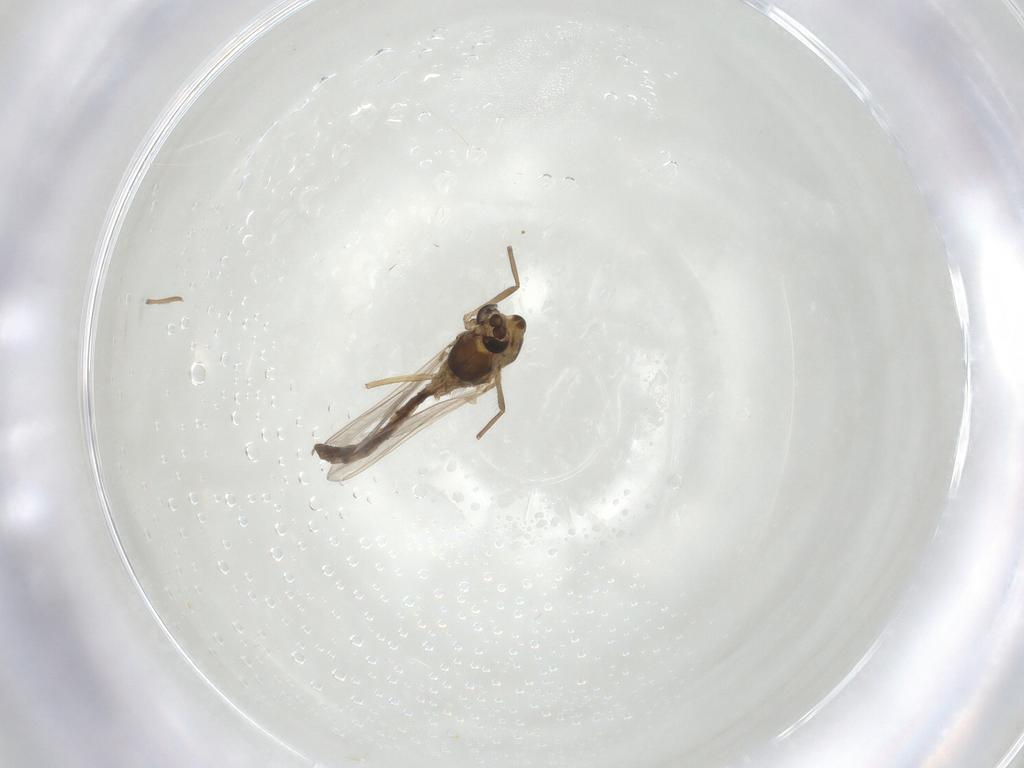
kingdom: Animalia
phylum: Arthropoda
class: Insecta
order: Diptera
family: Chironomidae
